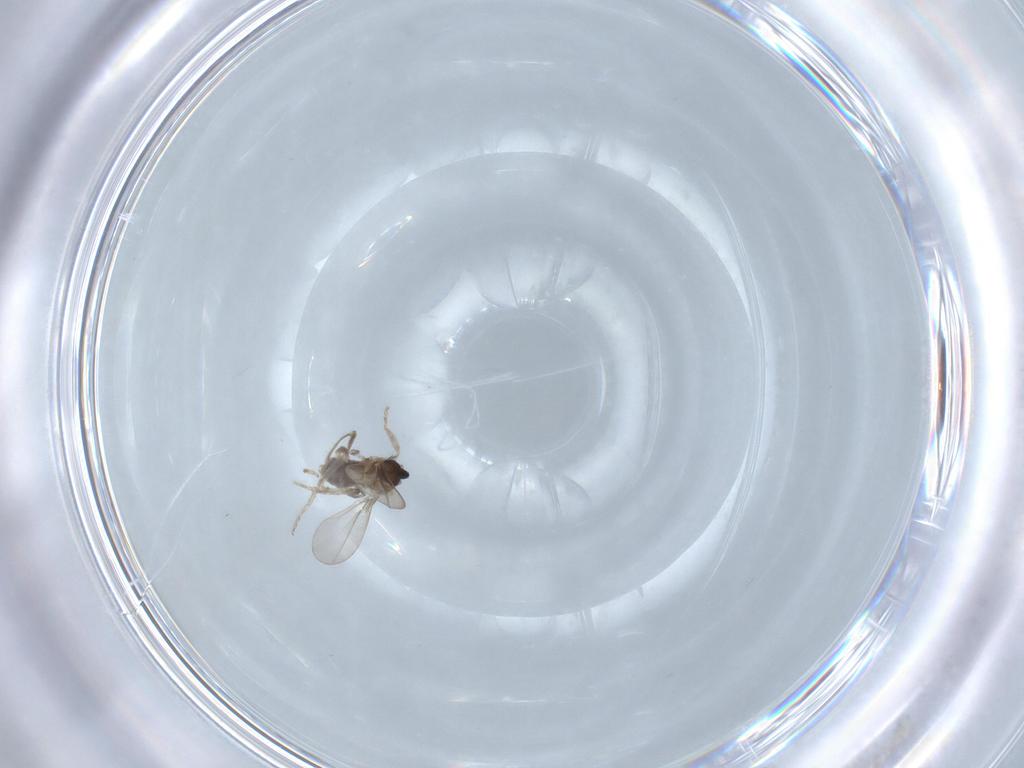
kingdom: Animalia
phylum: Arthropoda
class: Insecta
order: Diptera
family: Cecidomyiidae
